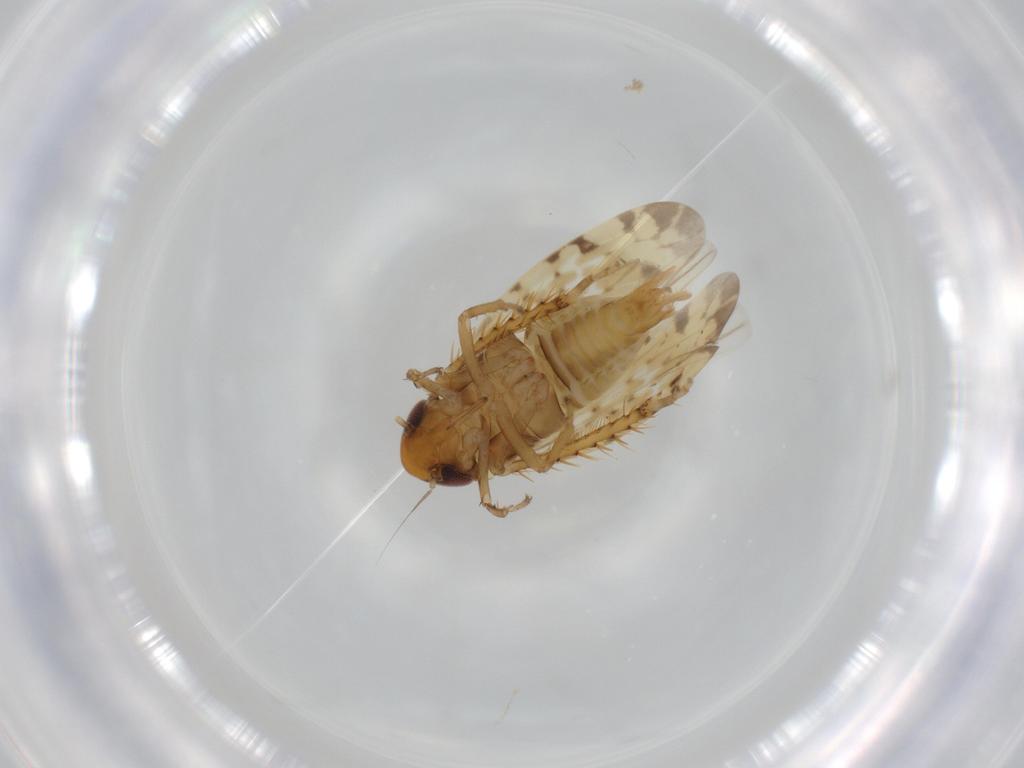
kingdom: Animalia
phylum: Arthropoda
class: Insecta
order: Hemiptera
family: Cicadellidae
